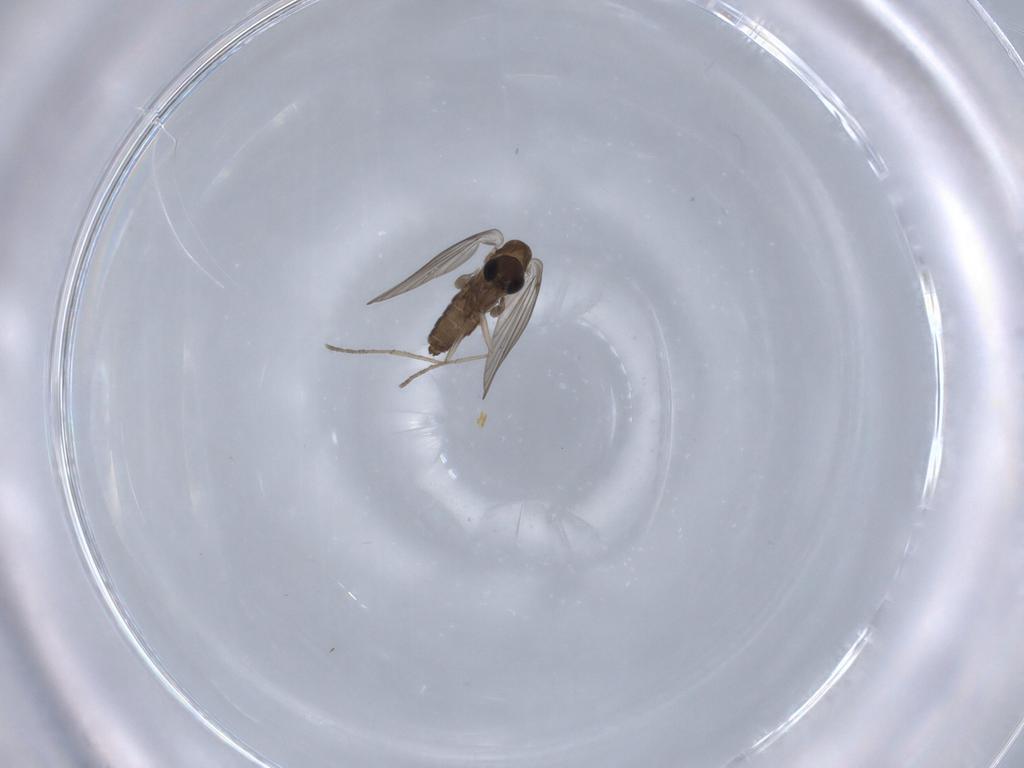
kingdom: Animalia
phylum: Arthropoda
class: Insecta
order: Diptera
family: Psychodidae
